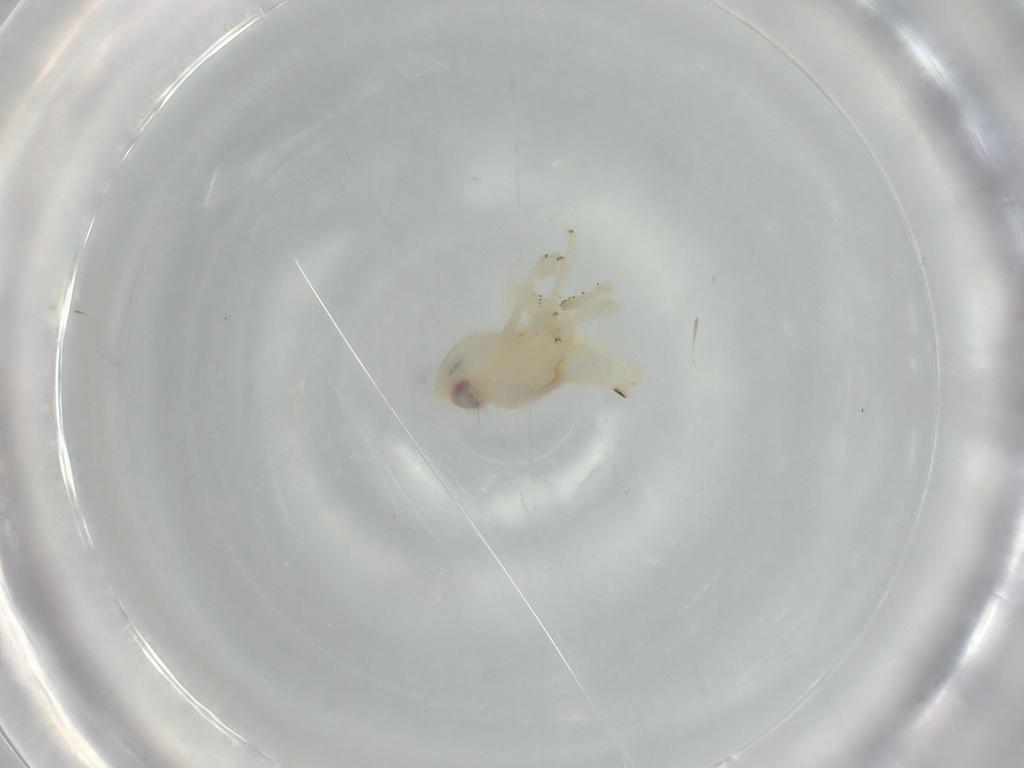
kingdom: Animalia
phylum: Arthropoda
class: Insecta
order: Hemiptera
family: Nogodinidae
